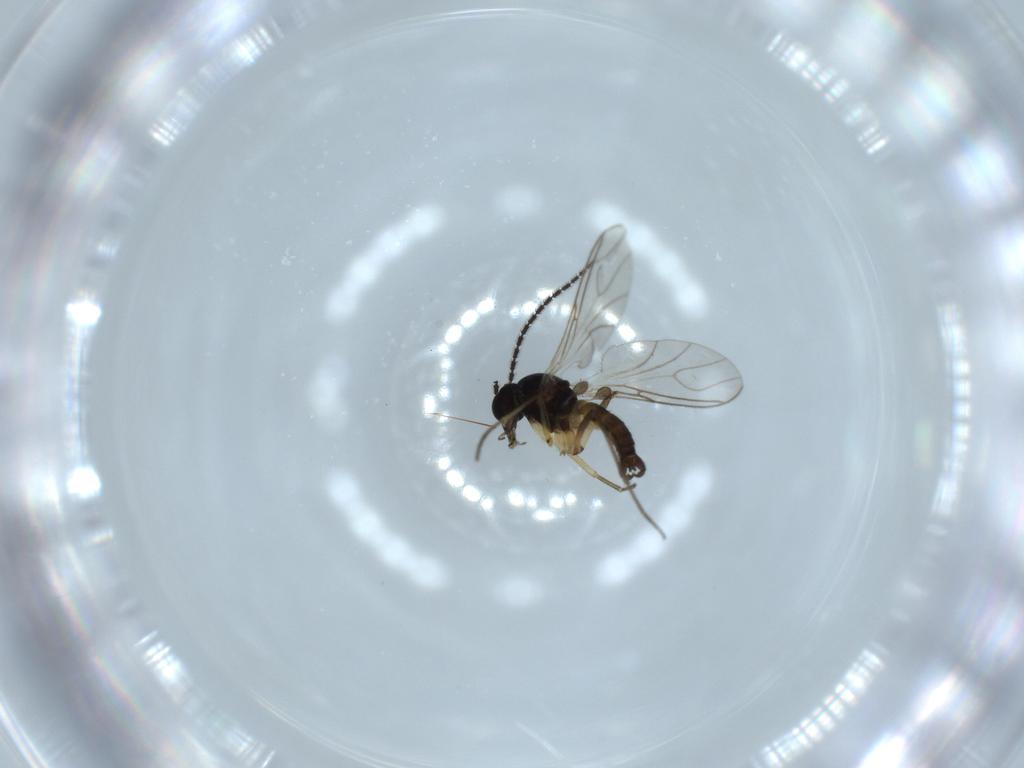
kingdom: Animalia
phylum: Arthropoda
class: Insecta
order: Diptera
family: Sciaridae
